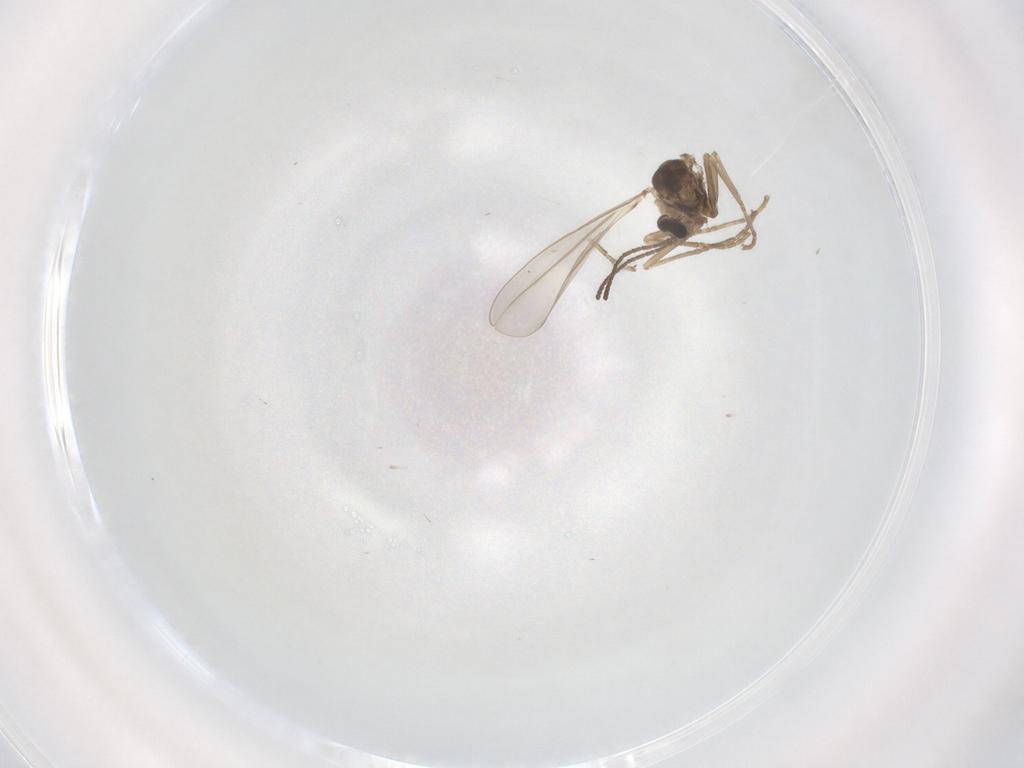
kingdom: Animalia
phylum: Arthropoda
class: Insecta
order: Diptera
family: Cecidomyiidae
